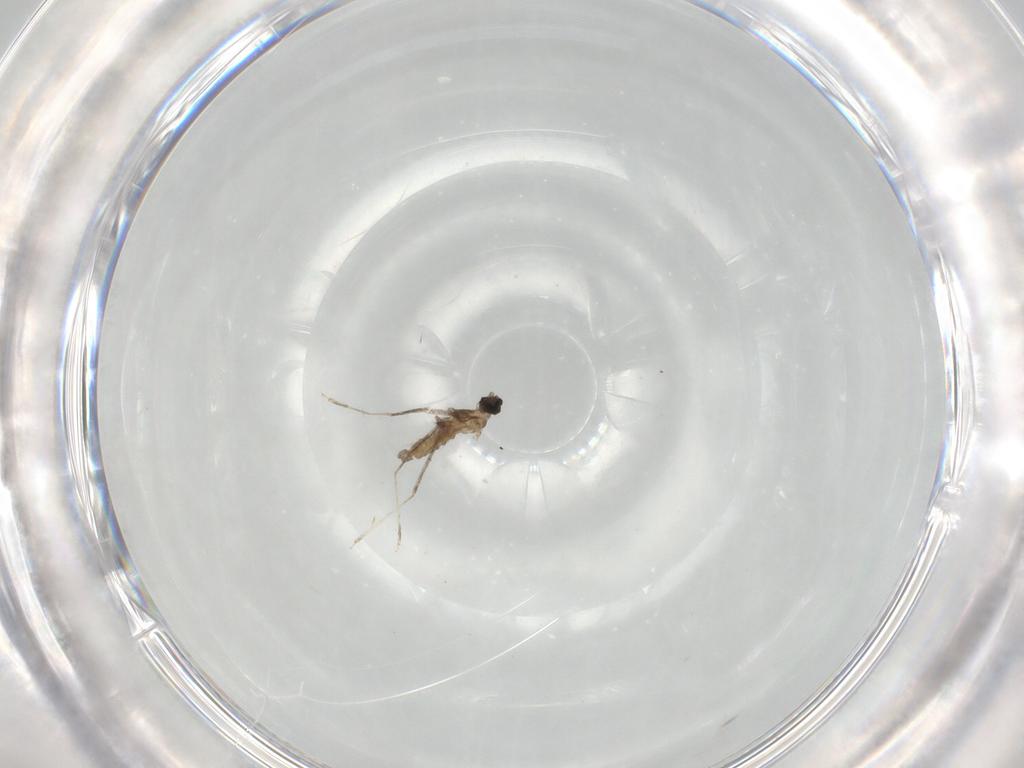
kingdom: Animalia
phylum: Arthropoda
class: Insecta
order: Diptera
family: Cecidomyiidae
